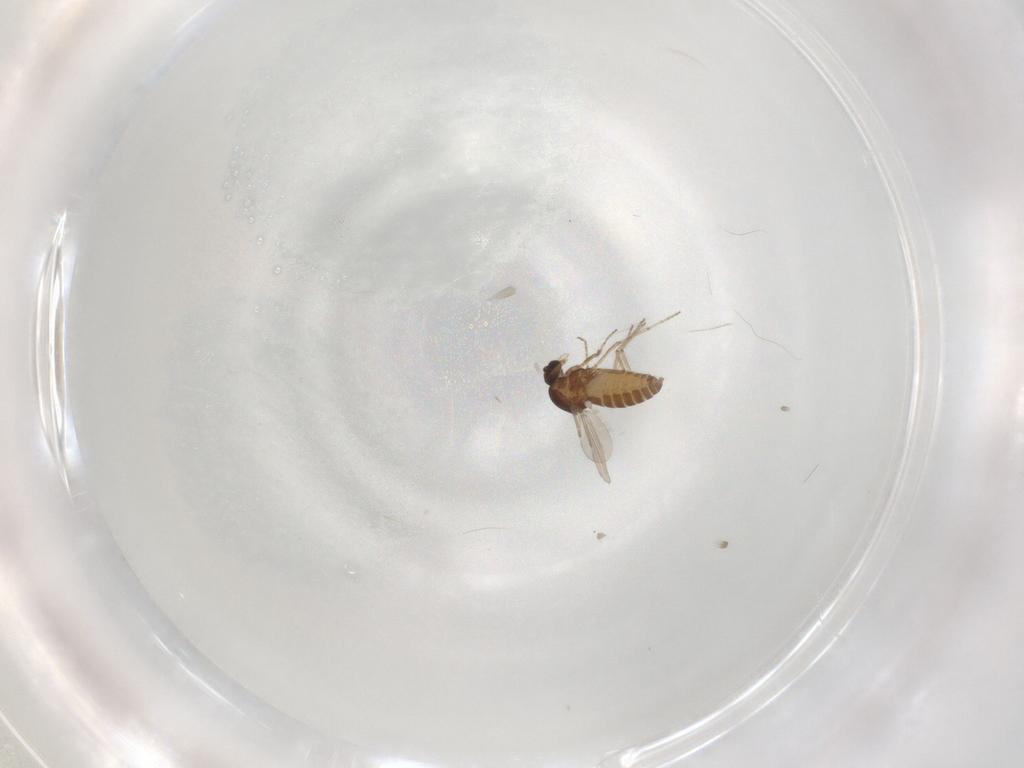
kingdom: Animalia
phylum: Arthropoda
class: Insecta
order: Diptera
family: Ceratopogonidae
